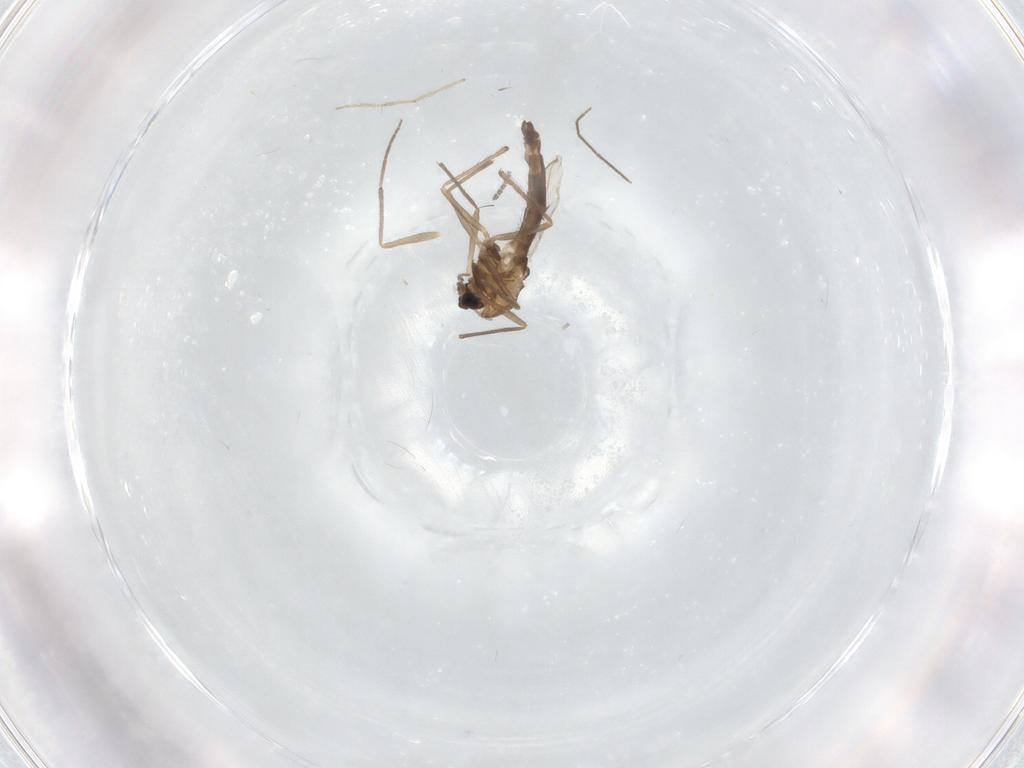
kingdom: Animalia
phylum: Arthropoda
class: Insecta
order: Diptera
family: Chironomidae
